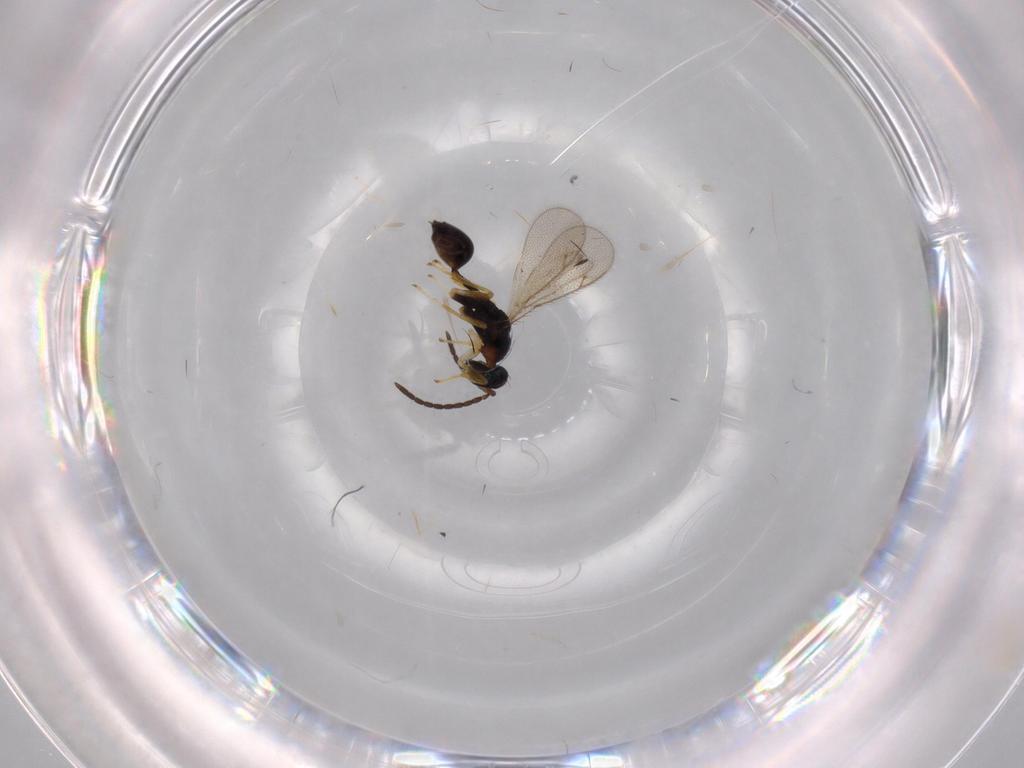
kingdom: Animalia
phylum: Arthropoda
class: Insecta
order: Hymenoptera
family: Diparidae
